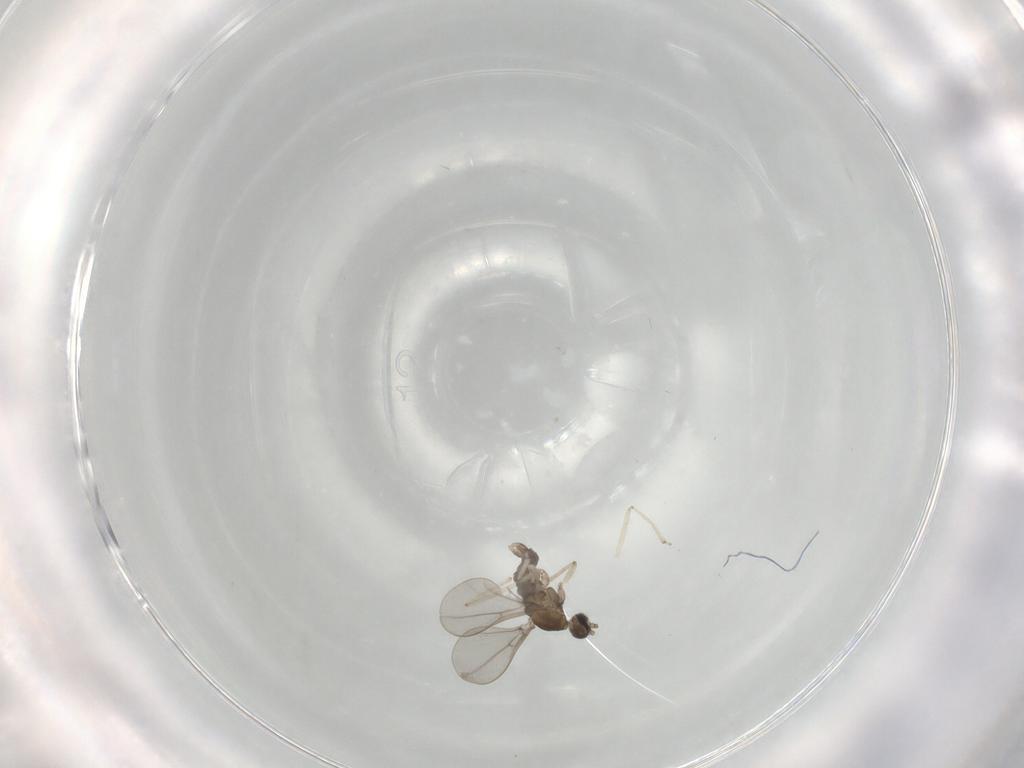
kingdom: Animalia
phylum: Arthropoda
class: Insecta
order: Diptera
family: Cecidomyiidae
